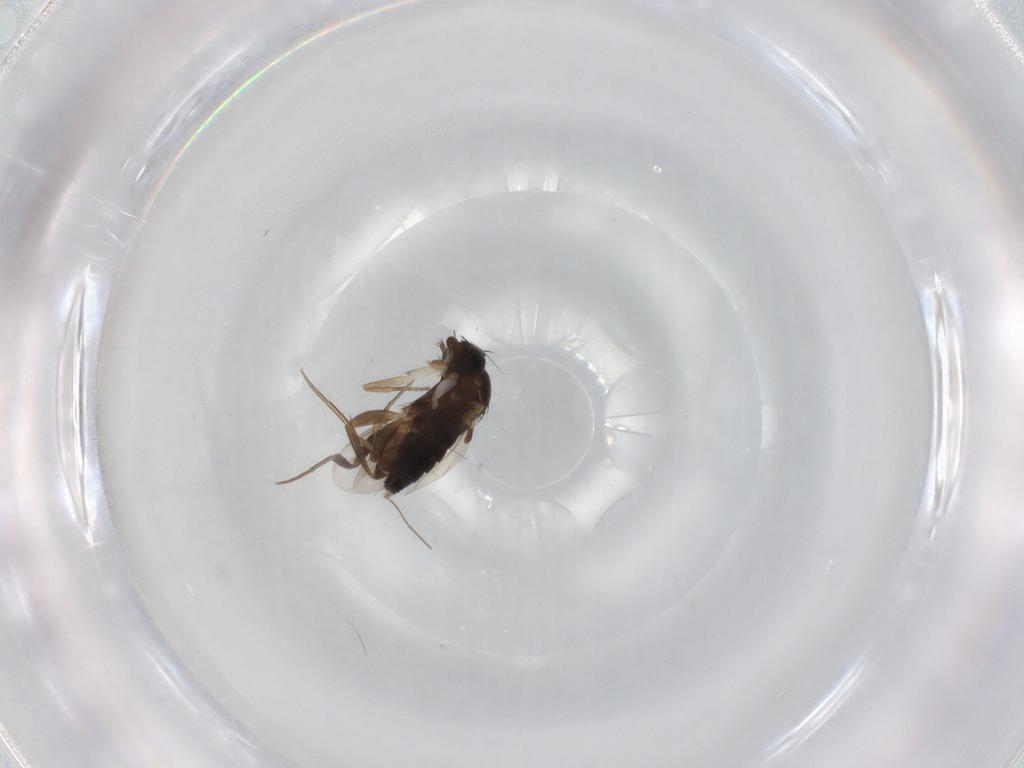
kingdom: Animalia
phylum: Arthropoda
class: Insecta
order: Diptera
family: Phoridae
